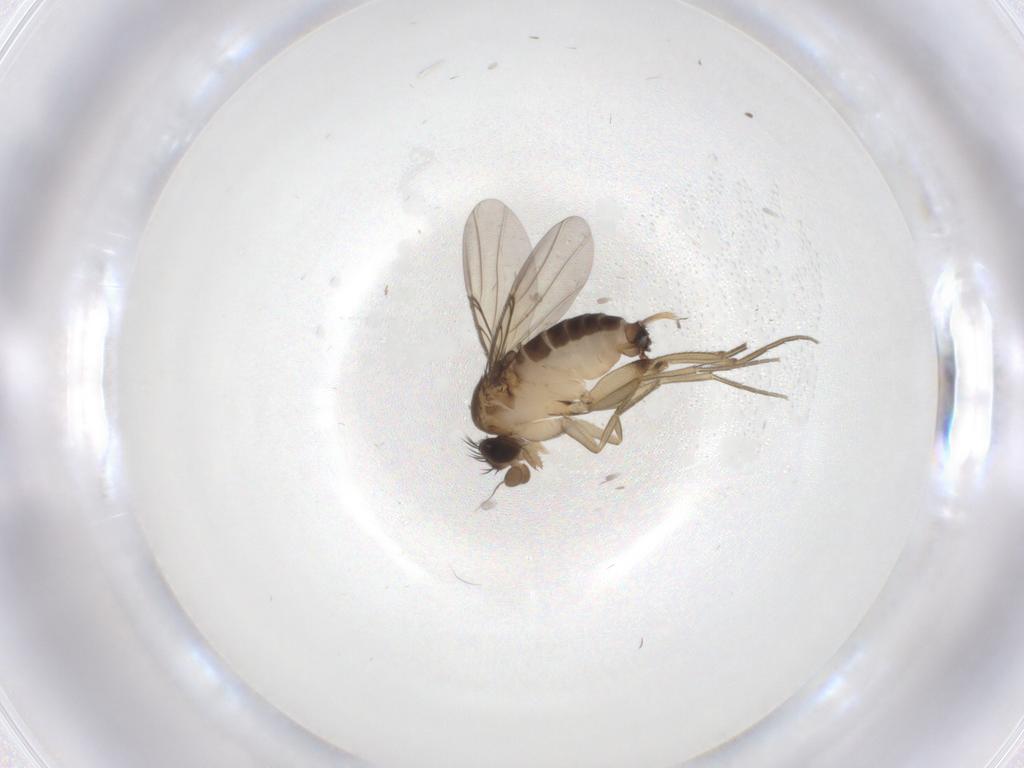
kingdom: Animalia
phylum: Arthropoda
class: Insecta
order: Diptera
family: Phoridae
